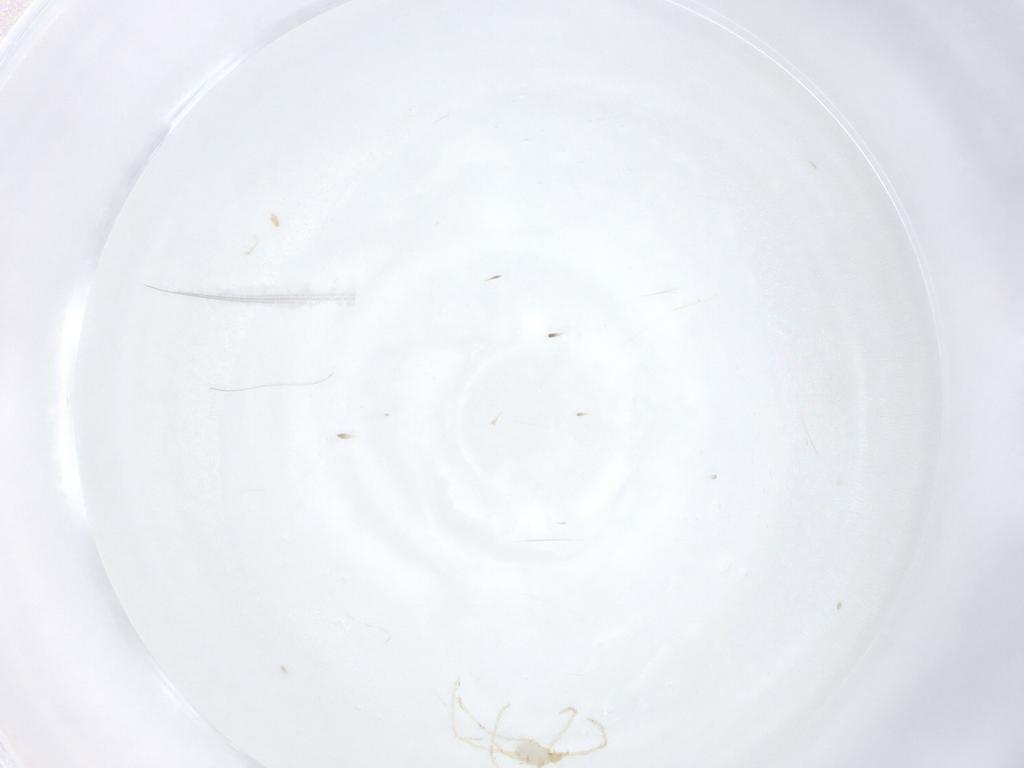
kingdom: Animalia
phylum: Arthropoda
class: Arachnida
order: Trombidiformes
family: Erythraeidae
